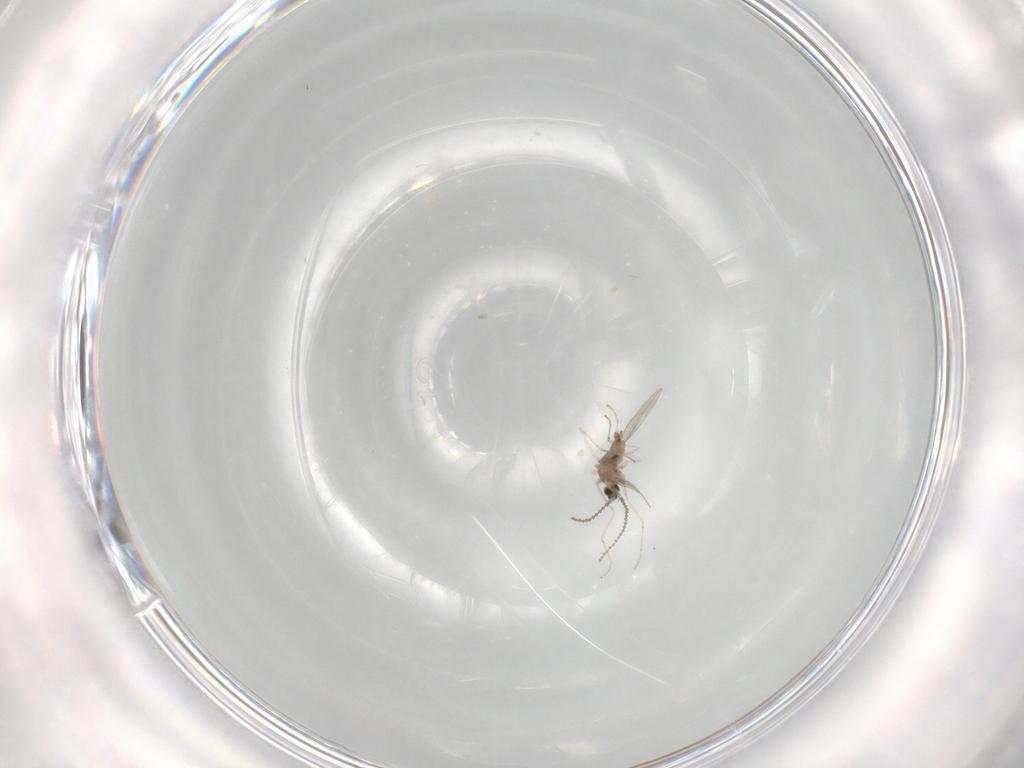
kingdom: Animalia
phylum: Arthropoda
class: Insecta
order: Diptera
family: Cecidomyiidae
